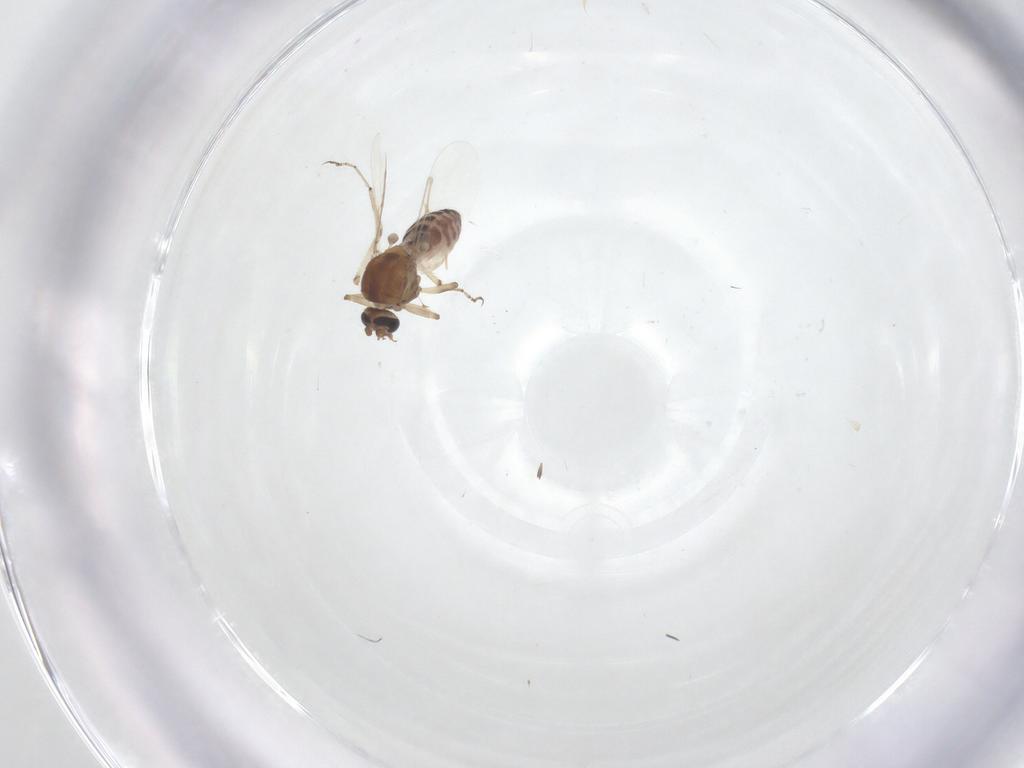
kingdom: Animalia
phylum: Arthropoda
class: Insecta
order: Diptera
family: Ceratopogonidae
